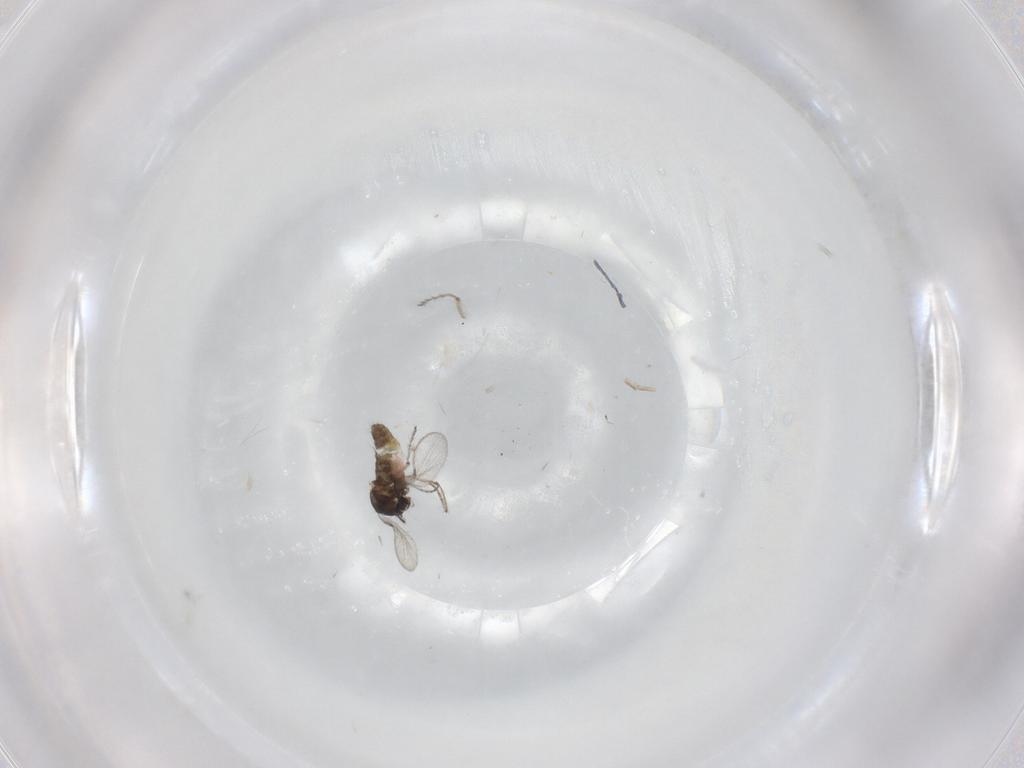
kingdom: Animalia
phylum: Arthropoda
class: Insecta
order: Diptera
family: Ceratopogonidae
